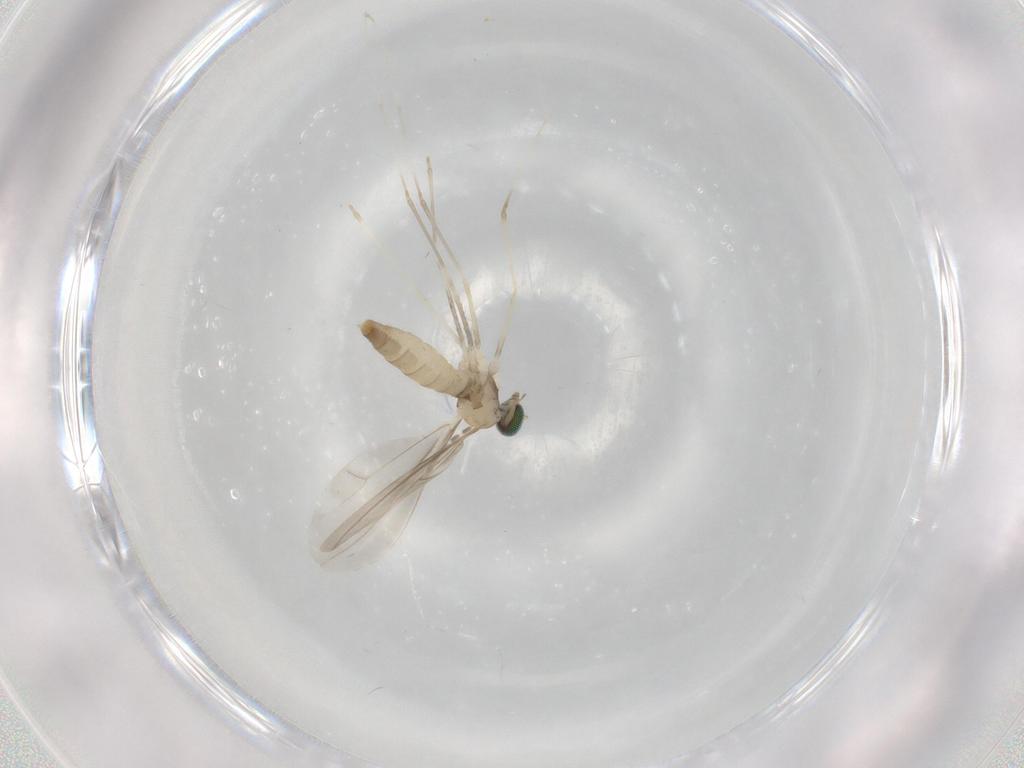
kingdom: Animalia
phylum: Arthropoda
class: Insecta
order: Diptera
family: Cecidomyiidae
